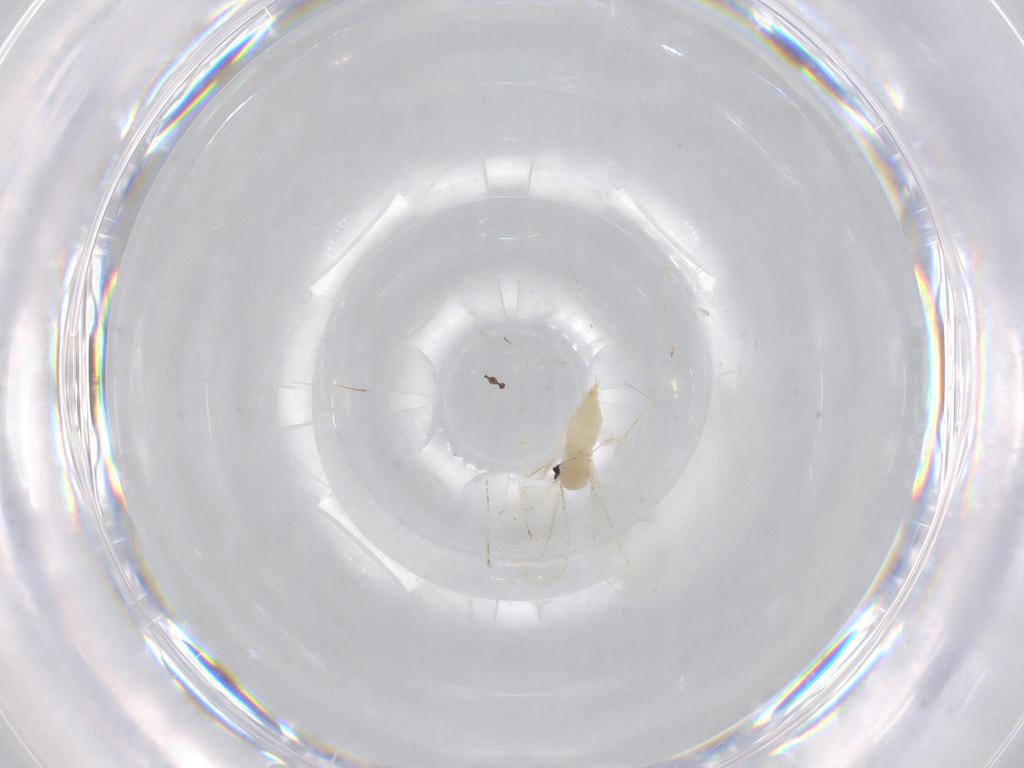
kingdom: Animalia
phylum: Arthropoda
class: Insecta
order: Diptera
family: Cecidomyiidae
